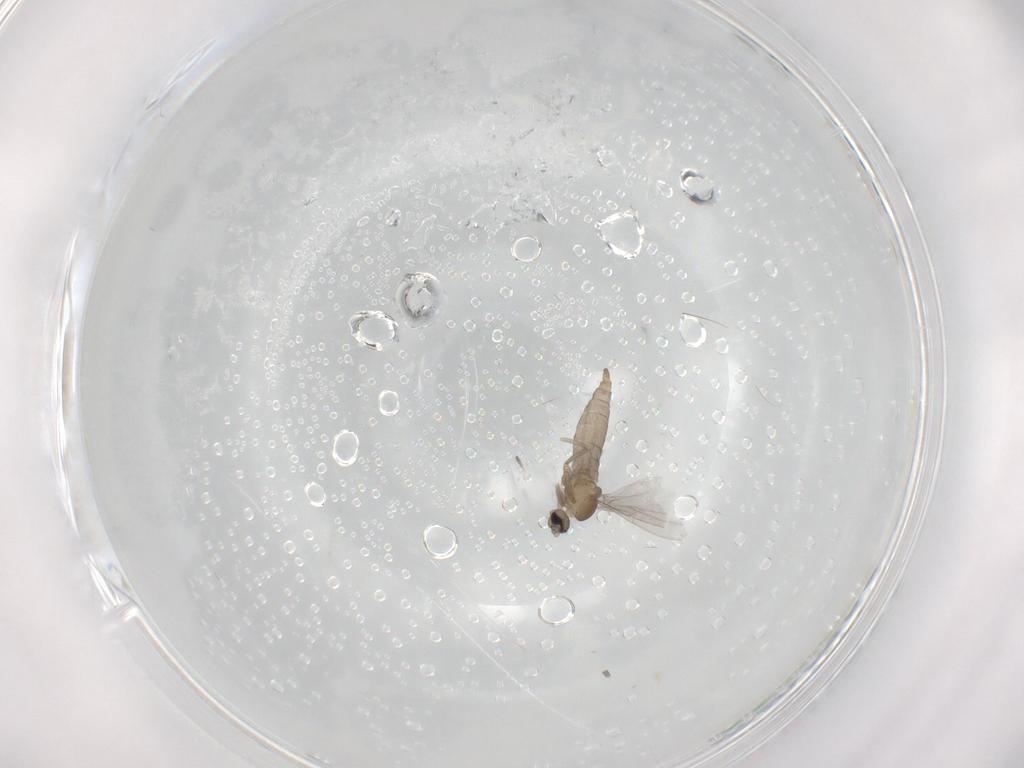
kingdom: Animalia
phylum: Arthropoda
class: Insecta
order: Diptera
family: Cecidomyiidae
